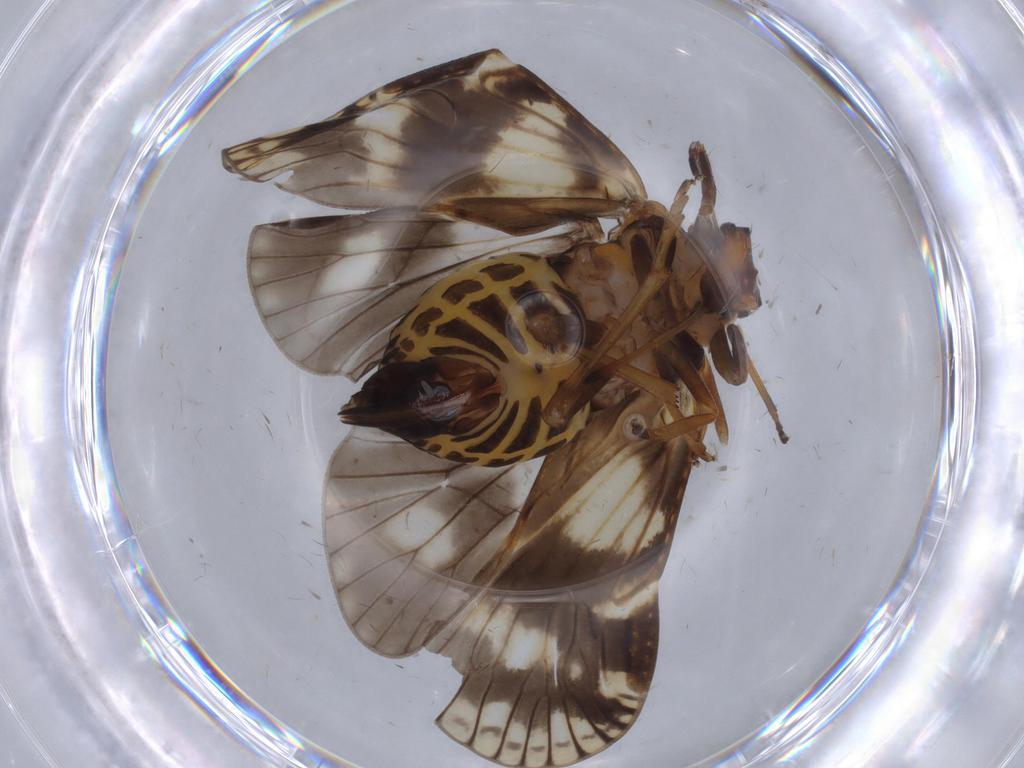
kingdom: Animalia
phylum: Arthropoda
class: Insecta
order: Hemiptera
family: Cixiidae
